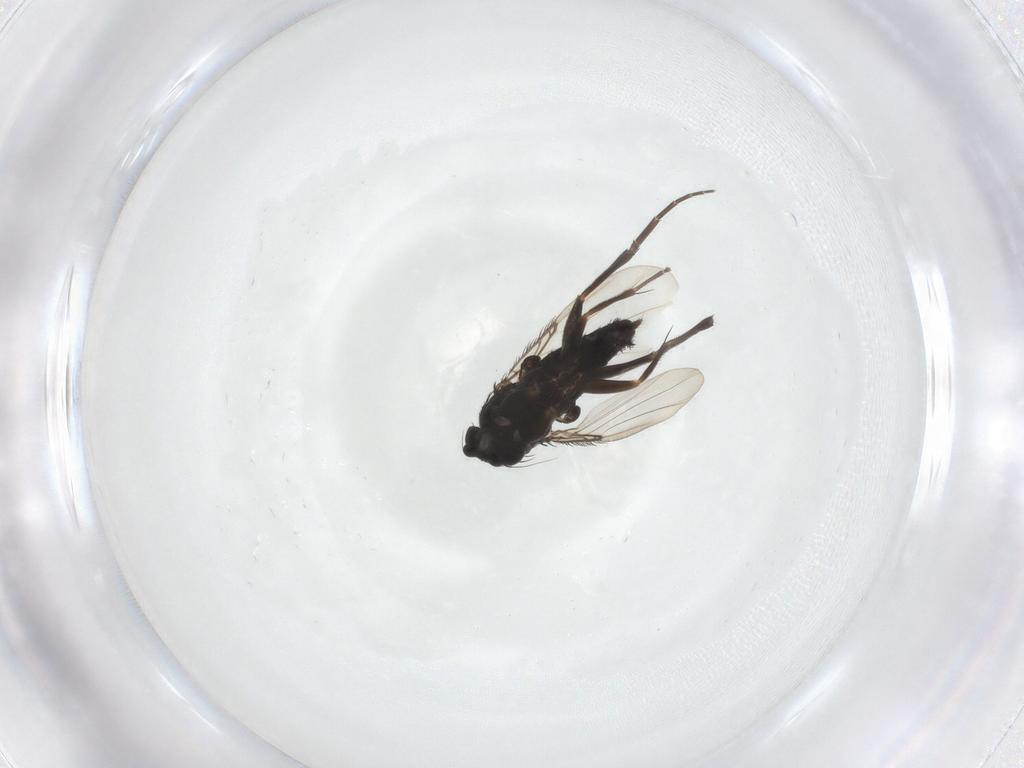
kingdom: Animalia
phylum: Arthropoda
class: Insecta
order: Diptera
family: Phoridae
